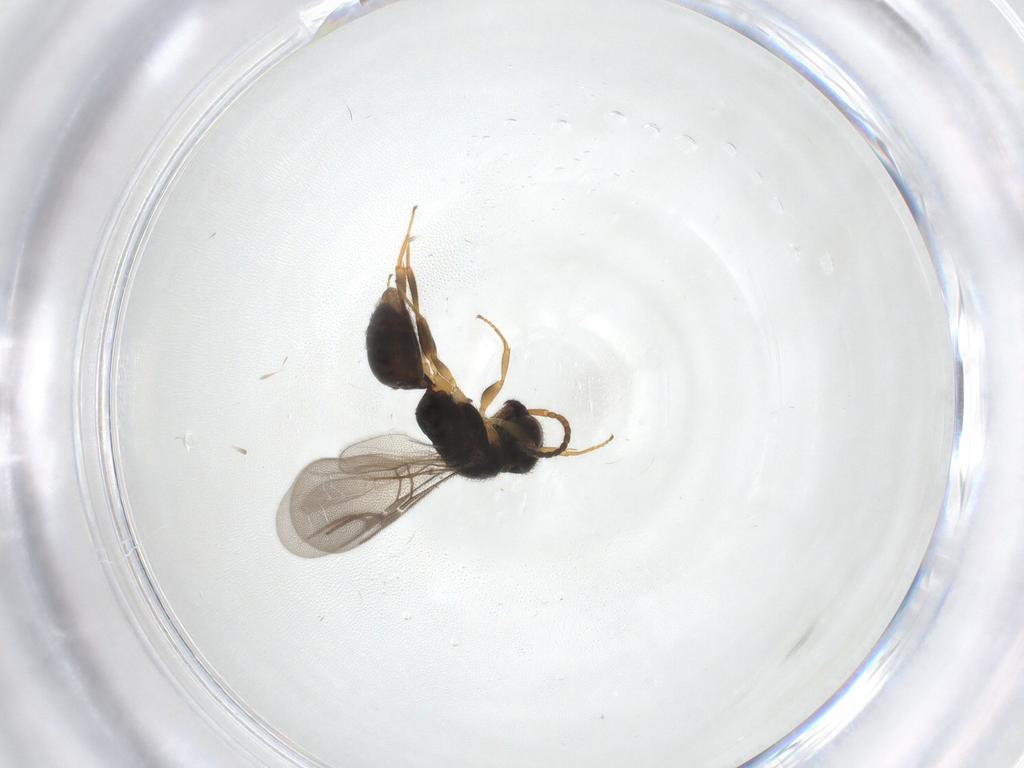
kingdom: Animalia
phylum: Arthropoda
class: Insecta
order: Hymenoptera
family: Bethylidae
